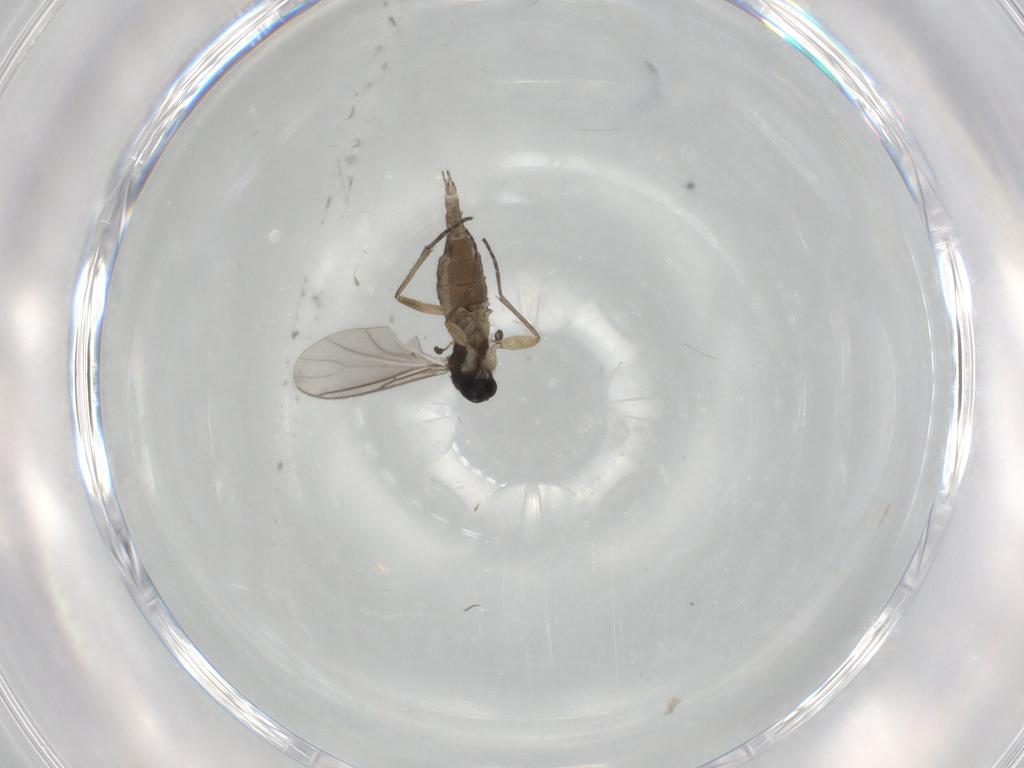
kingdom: Animalia
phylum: Arthropoda
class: Insecta
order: Diptera
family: Sciaridae
